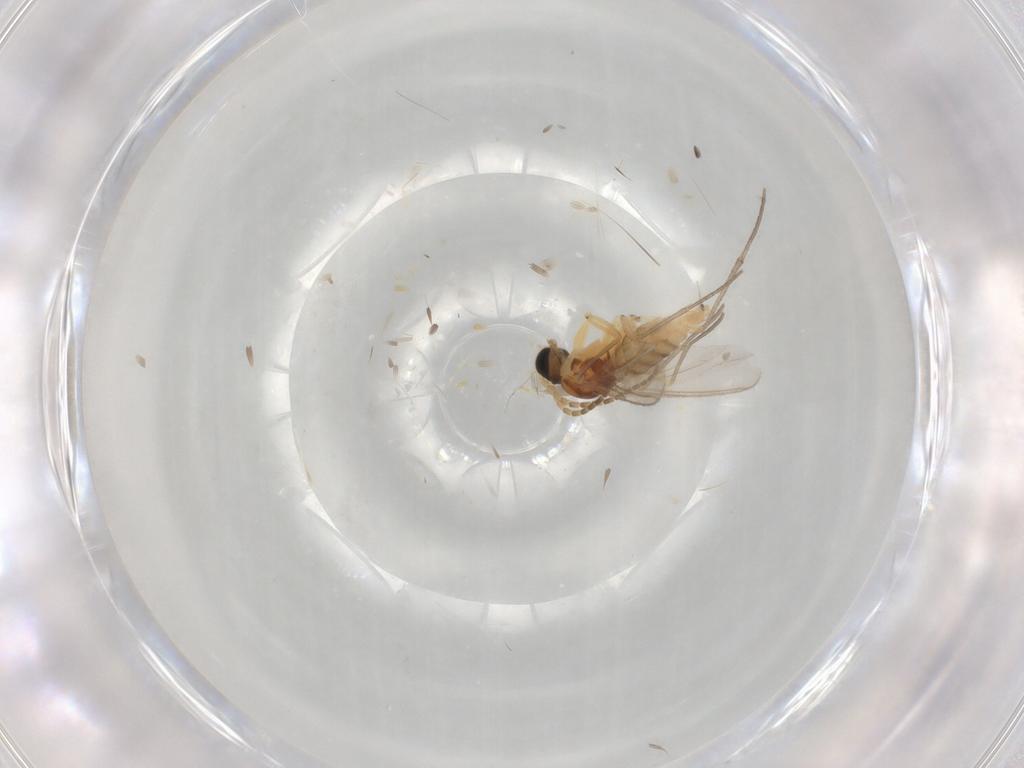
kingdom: Animalia
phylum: Arthropoda
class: Insecta
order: Diptera
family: Sciaridae
